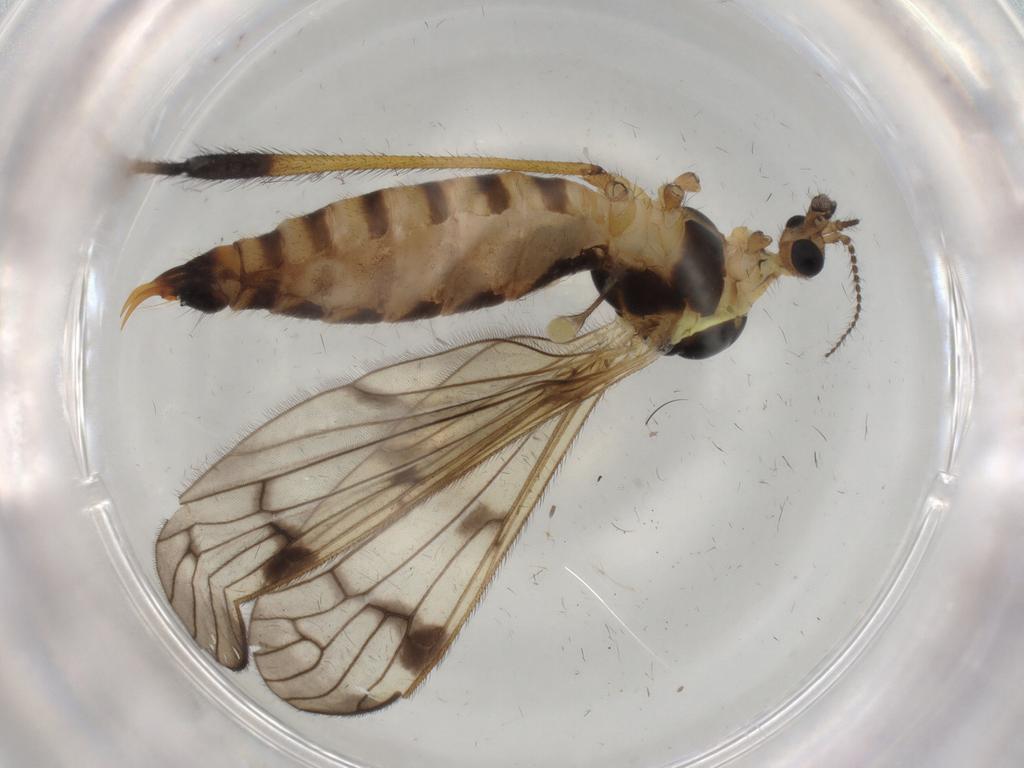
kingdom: Animalia
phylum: Arthropoda
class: Insecta
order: Diptera
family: Limoniidae
